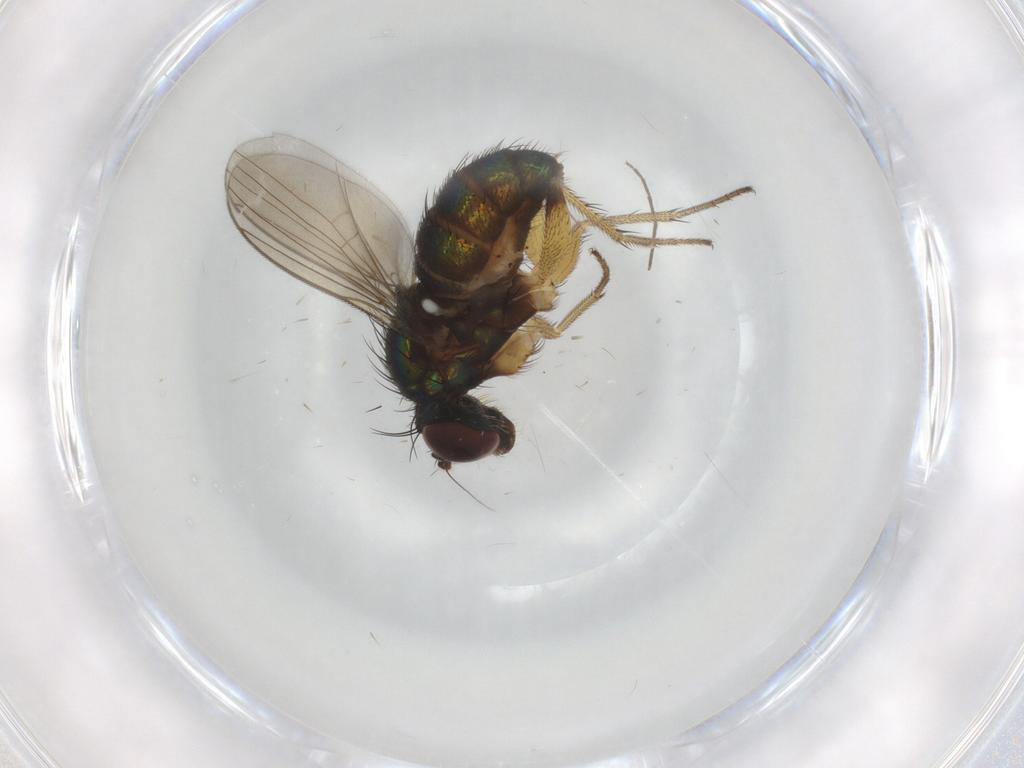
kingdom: Animalia
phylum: Arthropoda
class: Insecta
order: Diptera
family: Dolichopodidae
